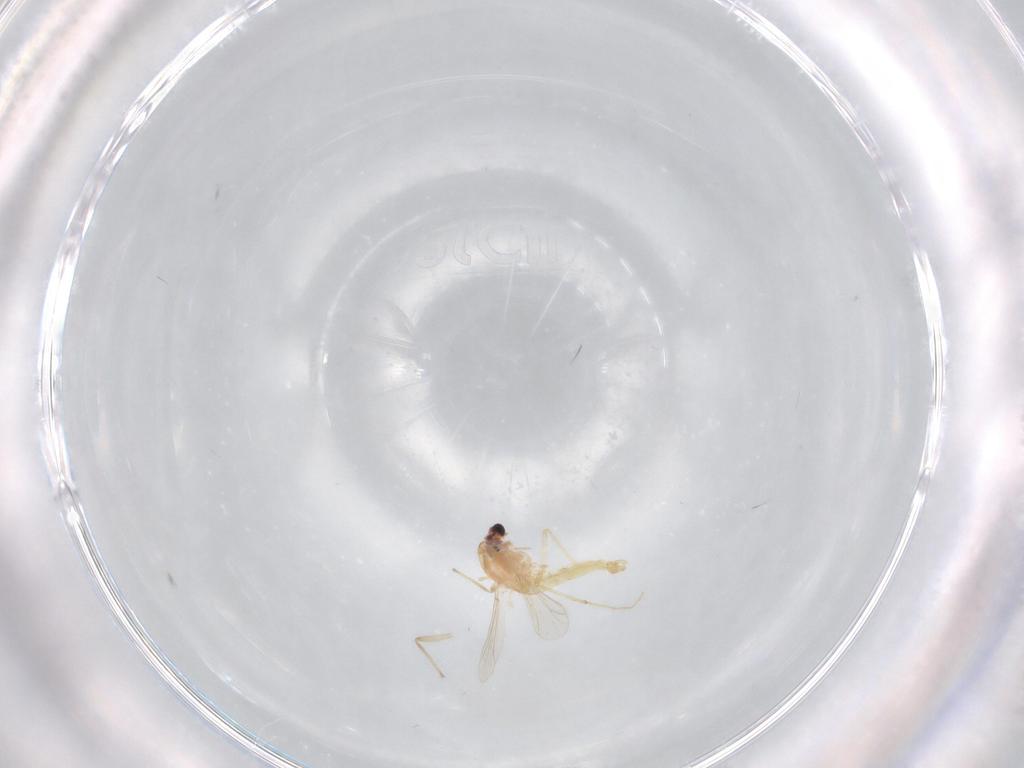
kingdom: Animalia
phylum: Arthropoda
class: Insecta
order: Diptera
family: Chironomidae
